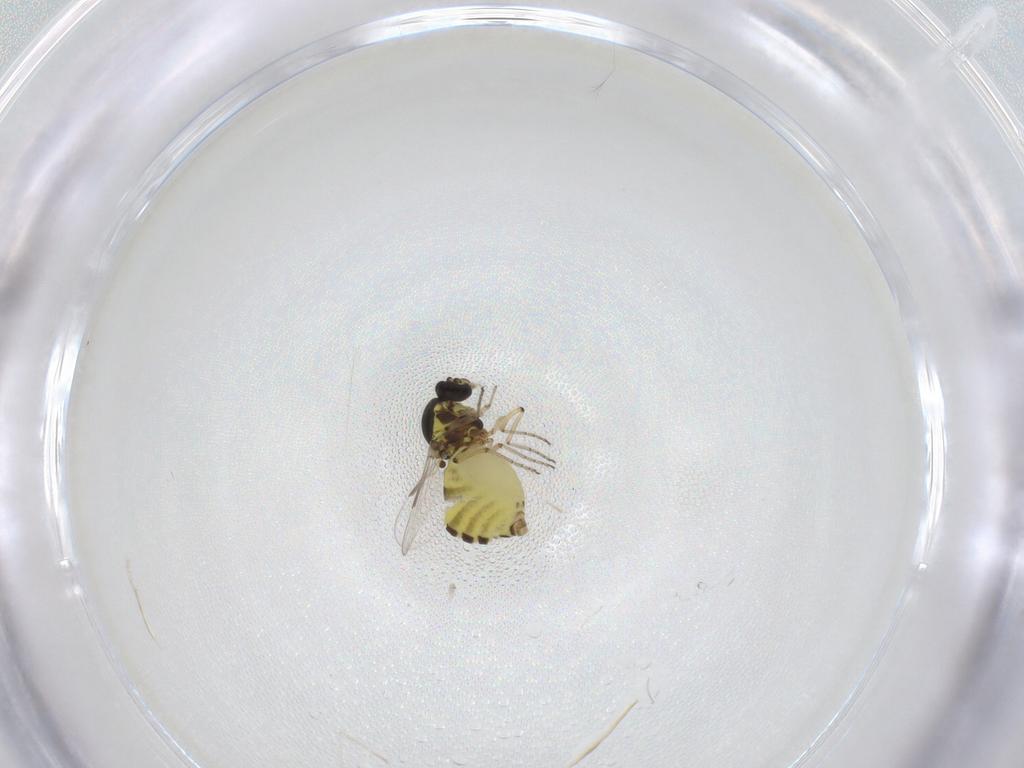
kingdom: Animalia
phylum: Arthropoda
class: Insecta
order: Diptera
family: Ceratopogonidae
